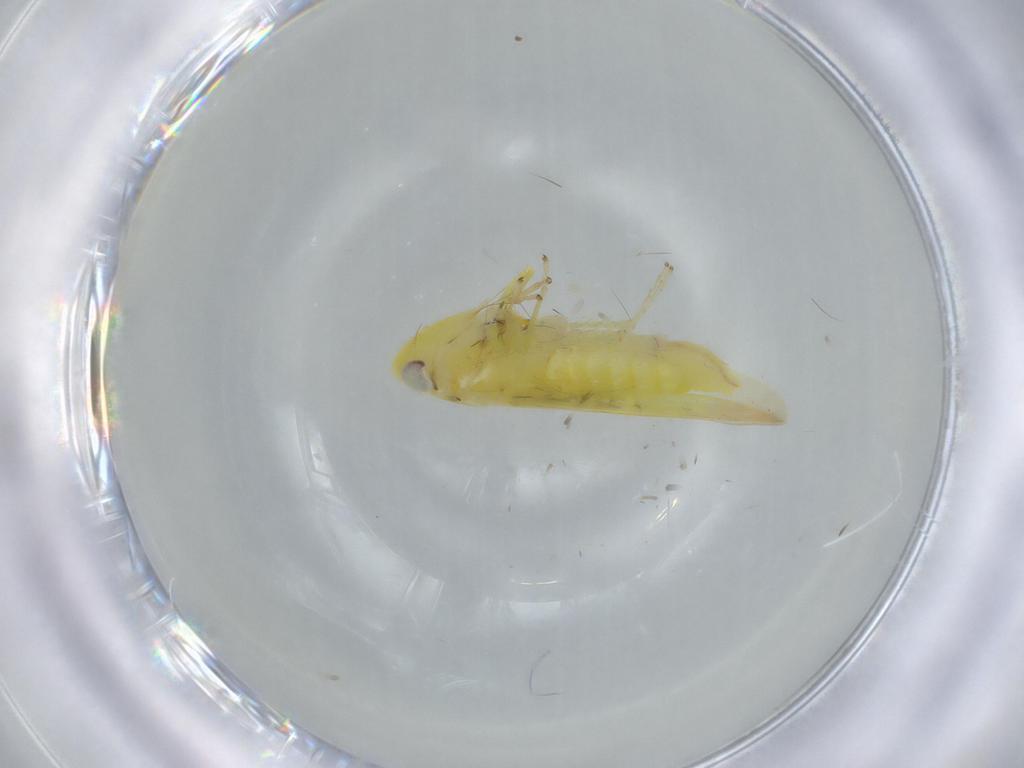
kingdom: Animalia
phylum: Arthropoda
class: Insecta
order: Hemiptera
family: Cicadellidae
